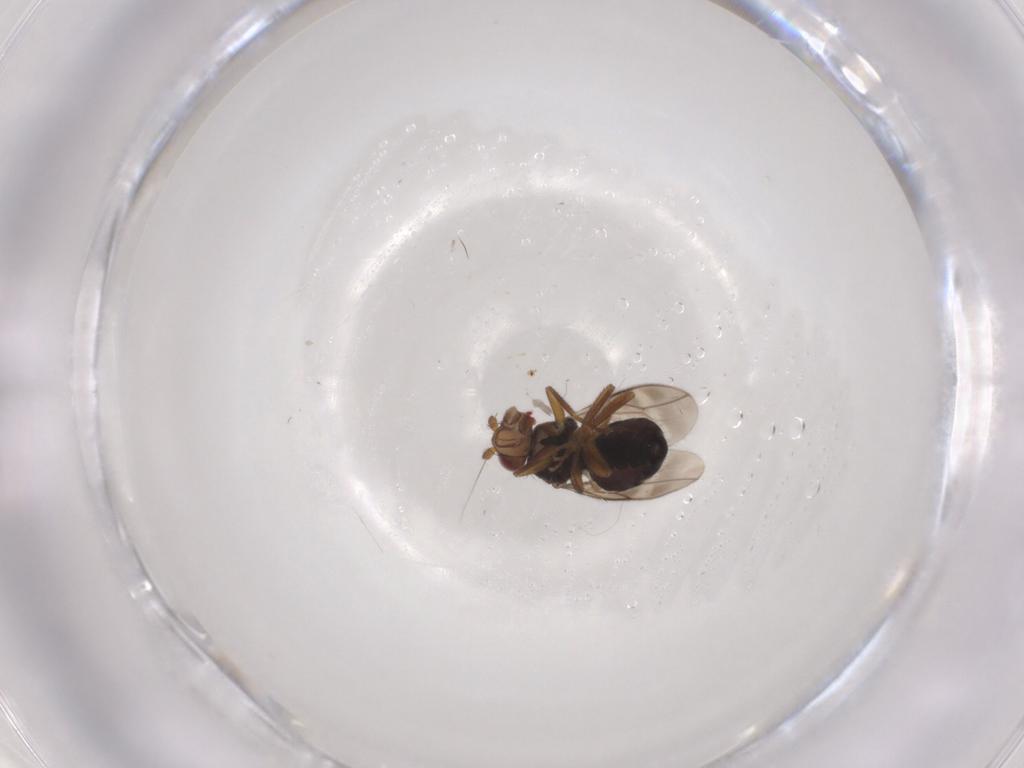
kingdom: Animalia
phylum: Arthropoda
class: Insecta
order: Diptera
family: Sphaeroceridae
